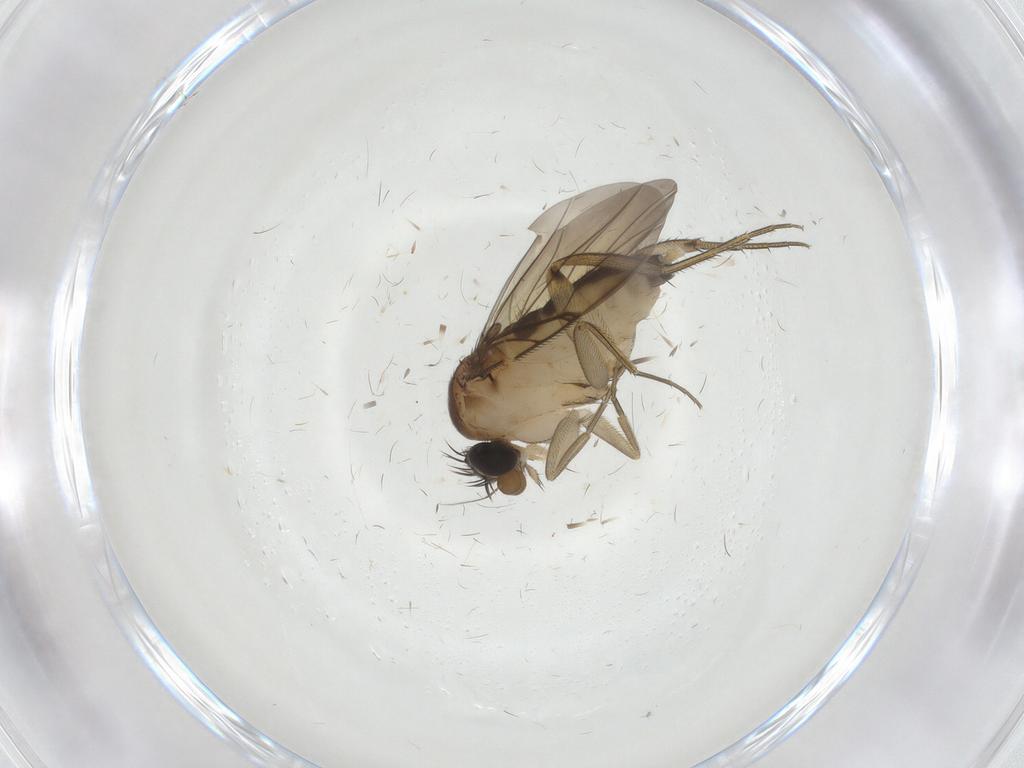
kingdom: Animalia
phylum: Arthropoda
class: Insecta
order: Diptera
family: Phoridae
